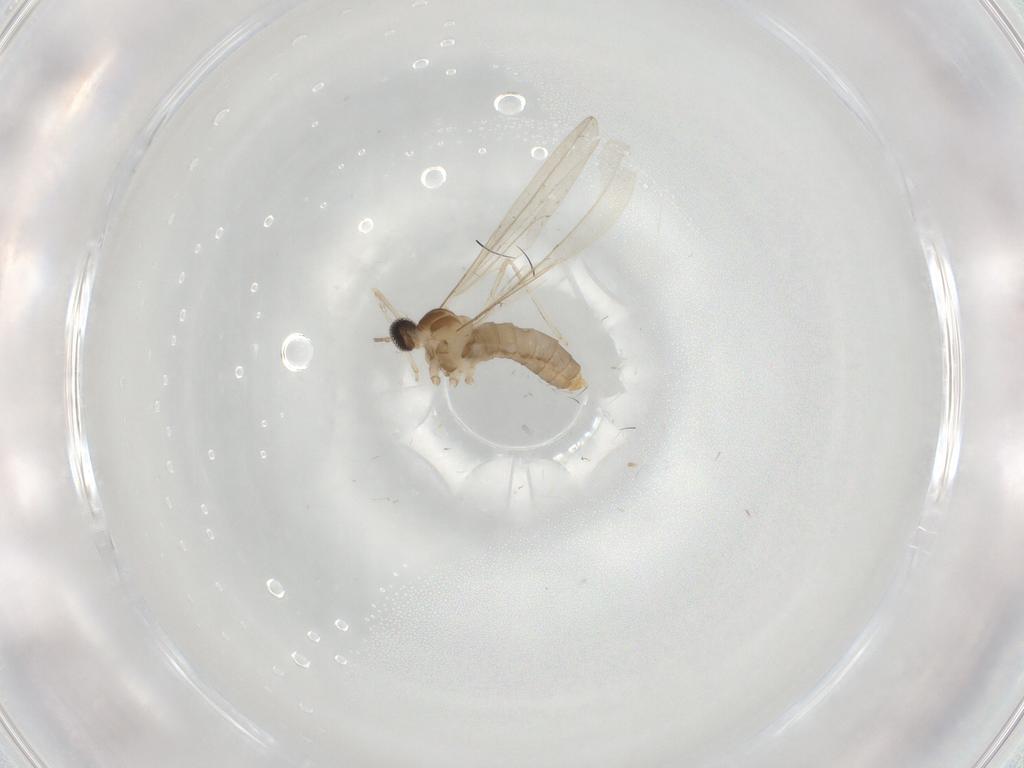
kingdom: Animalia
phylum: Arthropoda
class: Insecta
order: Diptera
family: Cecidomyiidae
